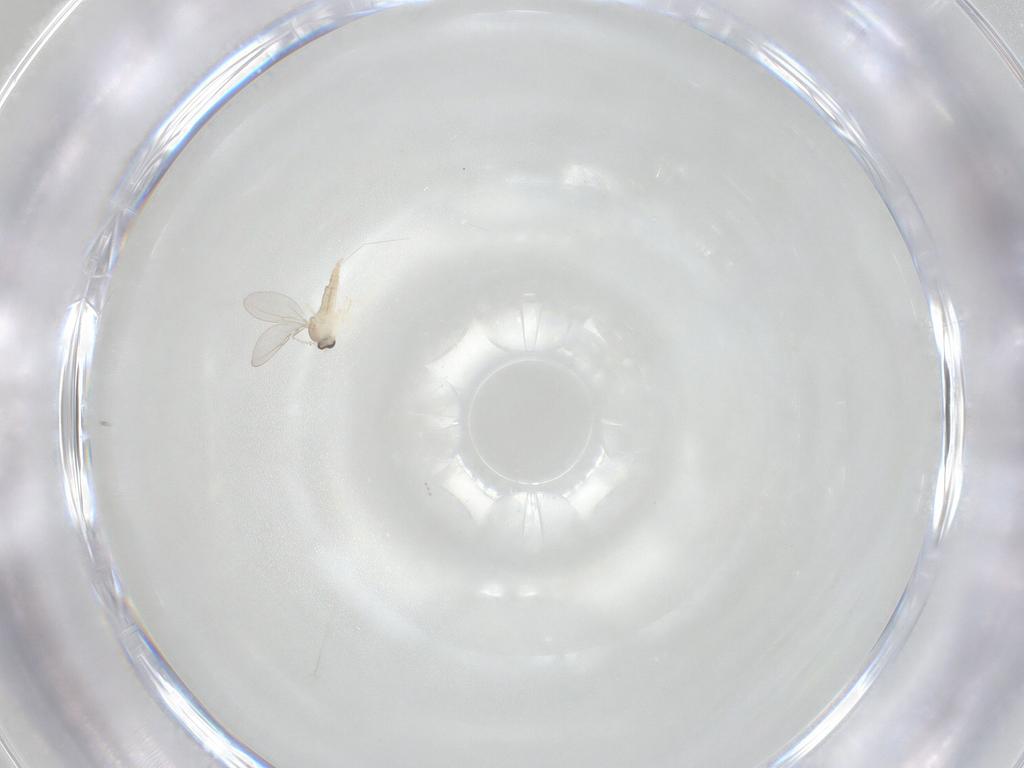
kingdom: Animalia
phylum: Arthropoda
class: Insecta
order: Diptera
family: Cecidomyiidae
